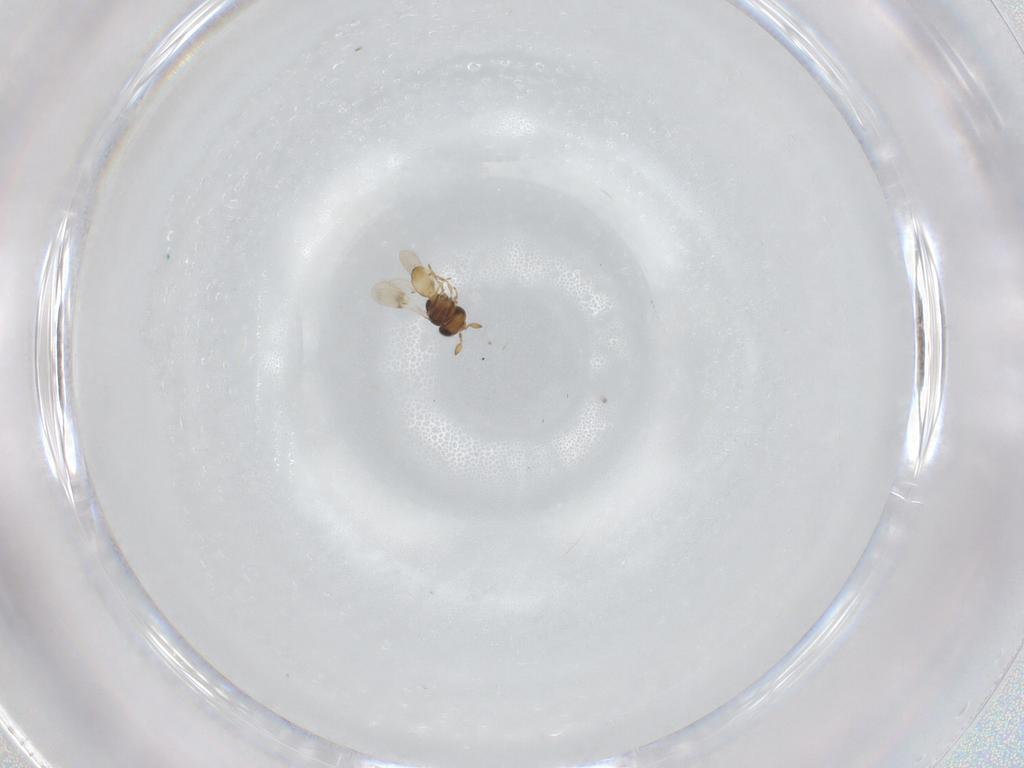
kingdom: Animalia
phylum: Arthropoda
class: Insecta
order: Hymenoptera
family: Scelionidae
